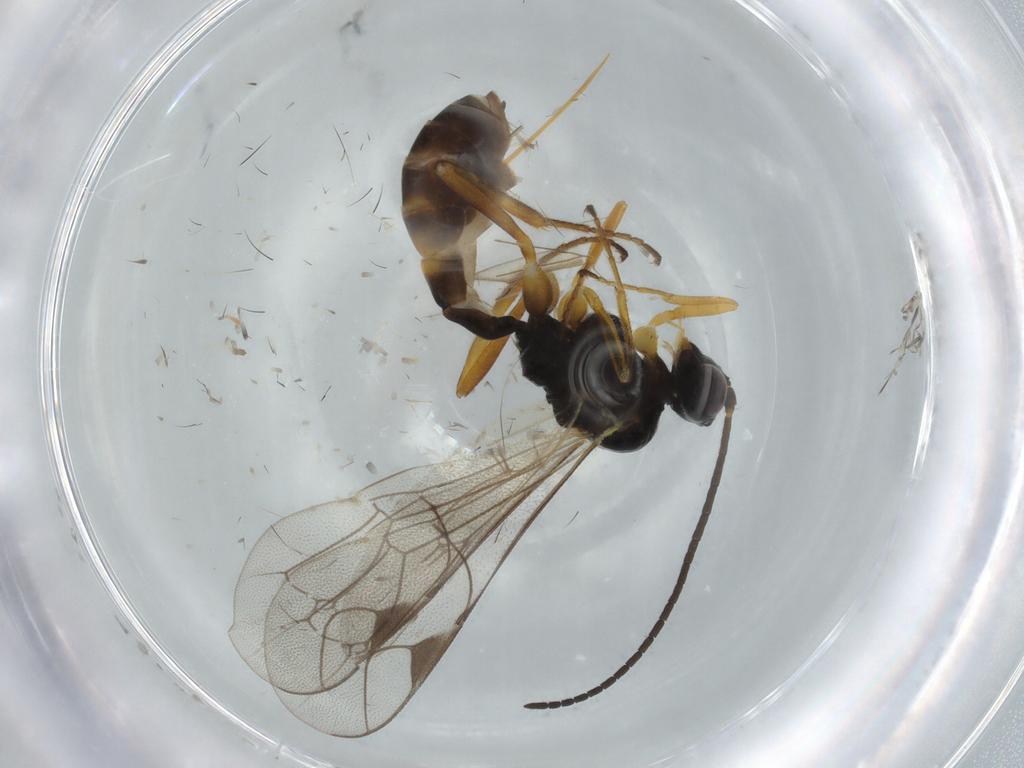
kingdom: Animalia
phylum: Arthropoda
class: Insecta
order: Hymenoptera
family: Ichneumonidae
